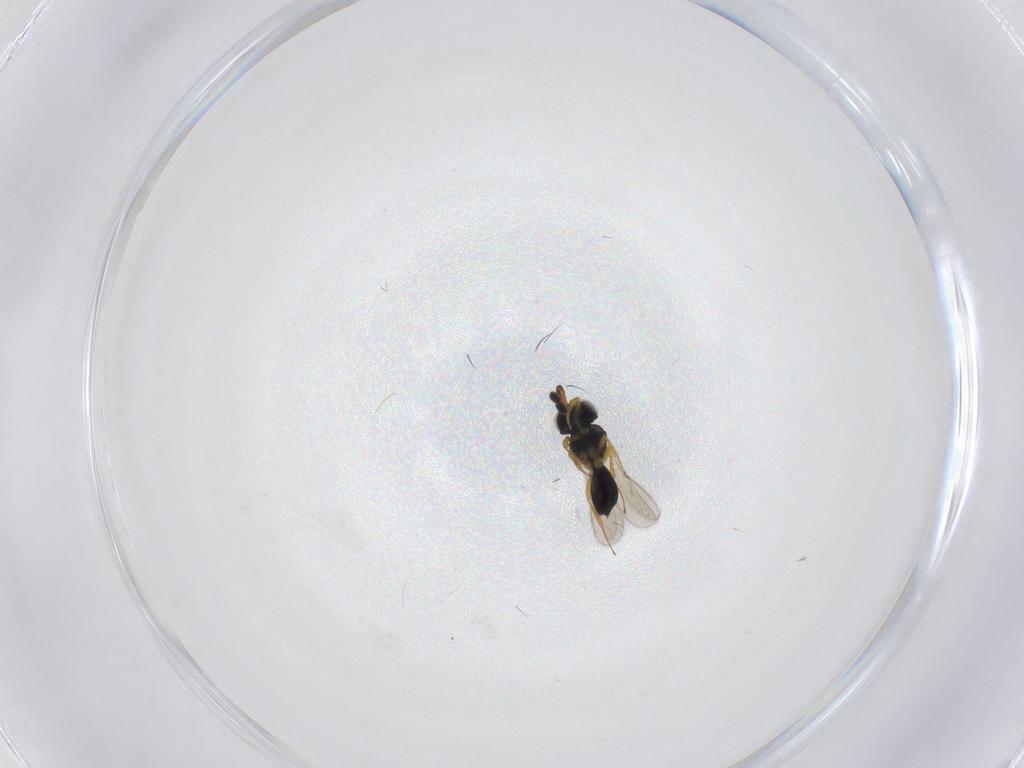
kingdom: Animalia
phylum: Arthropoda
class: Insecta
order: Hymenoptera
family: Scelionidae
